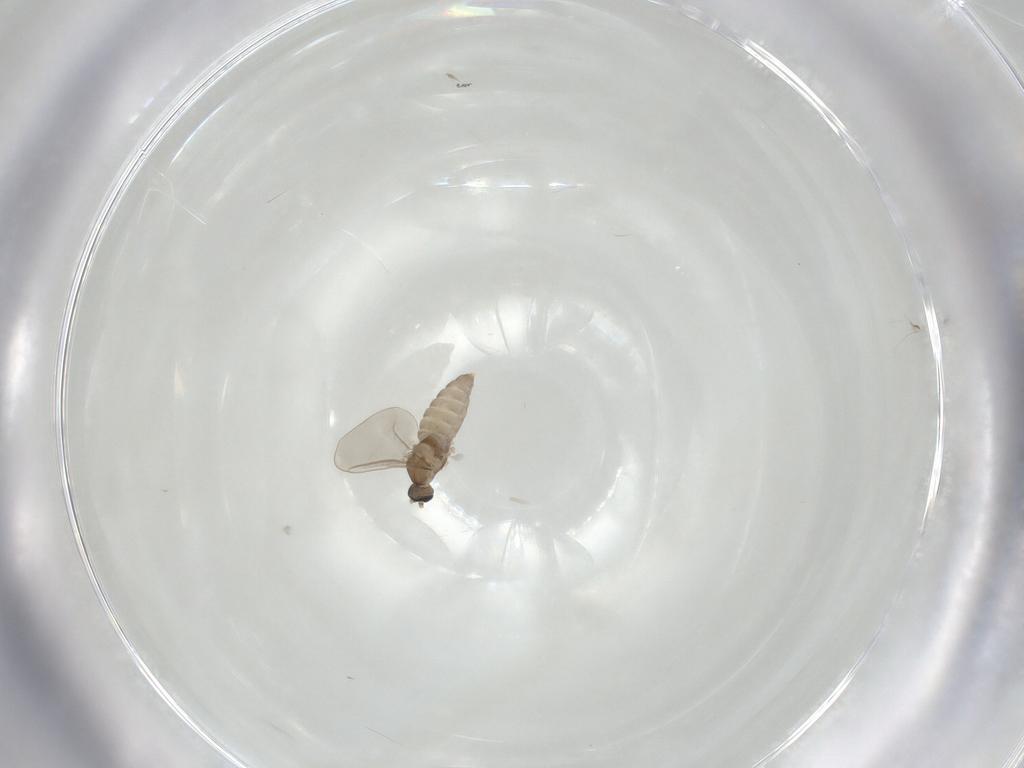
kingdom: Animalia
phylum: Arthropoda
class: Insecta
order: Diptera
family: Cecidomyiidae
